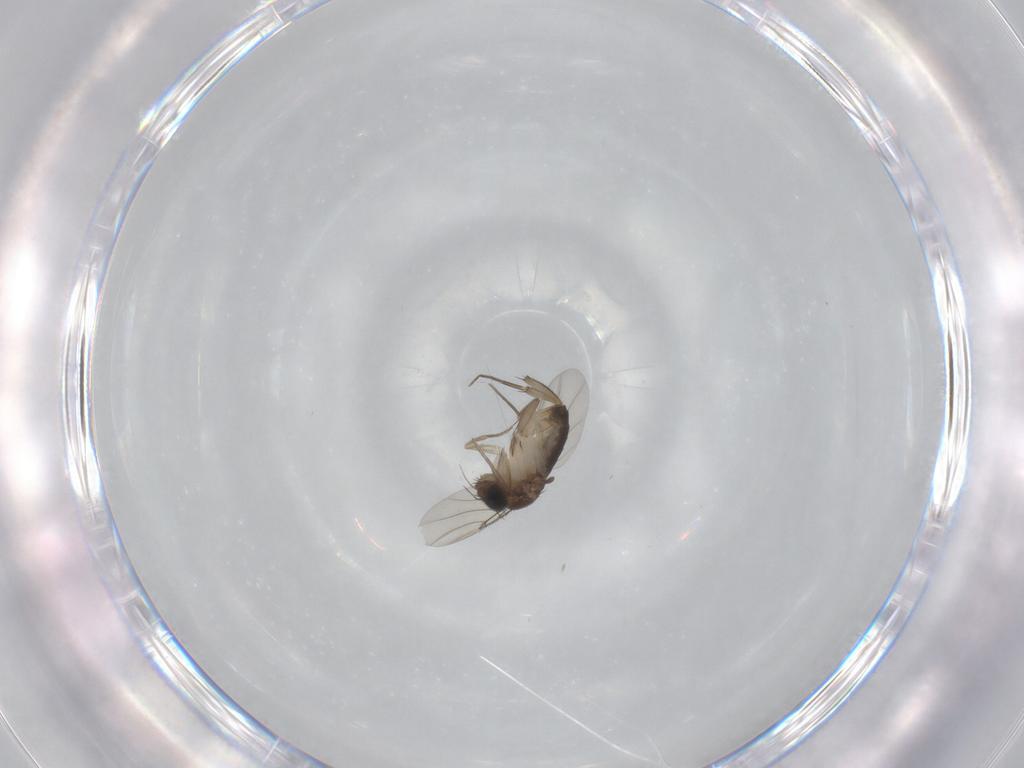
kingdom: Animalia
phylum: Arthropoda
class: Insecta
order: Diptera
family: Phoridae
